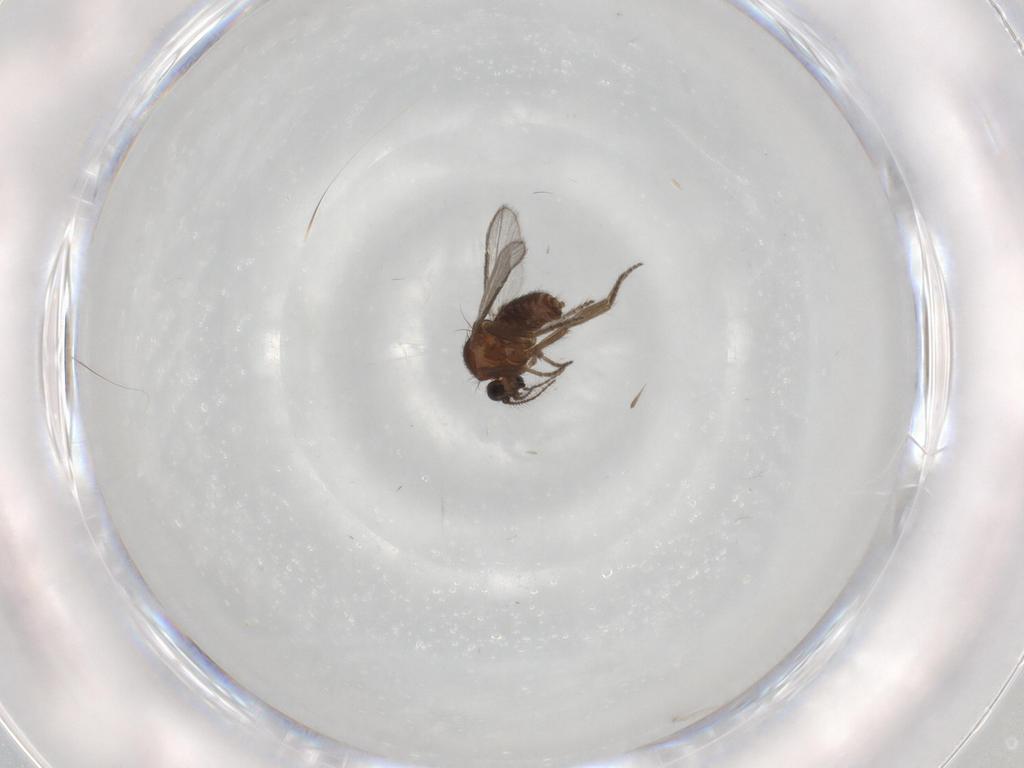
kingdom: Animalia
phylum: Arthropoda
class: Insecta
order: Diptera
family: Ceratopogonidae
